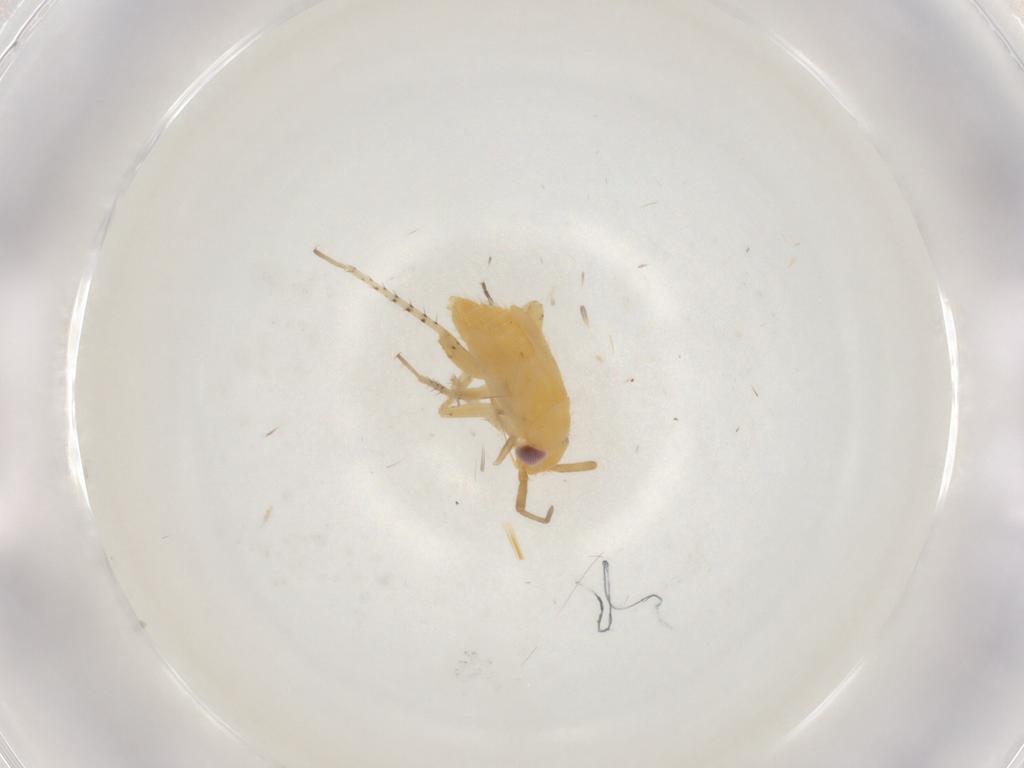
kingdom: Animalia
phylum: Arthropoda
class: Insecta
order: Hemiptera
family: Miridae
